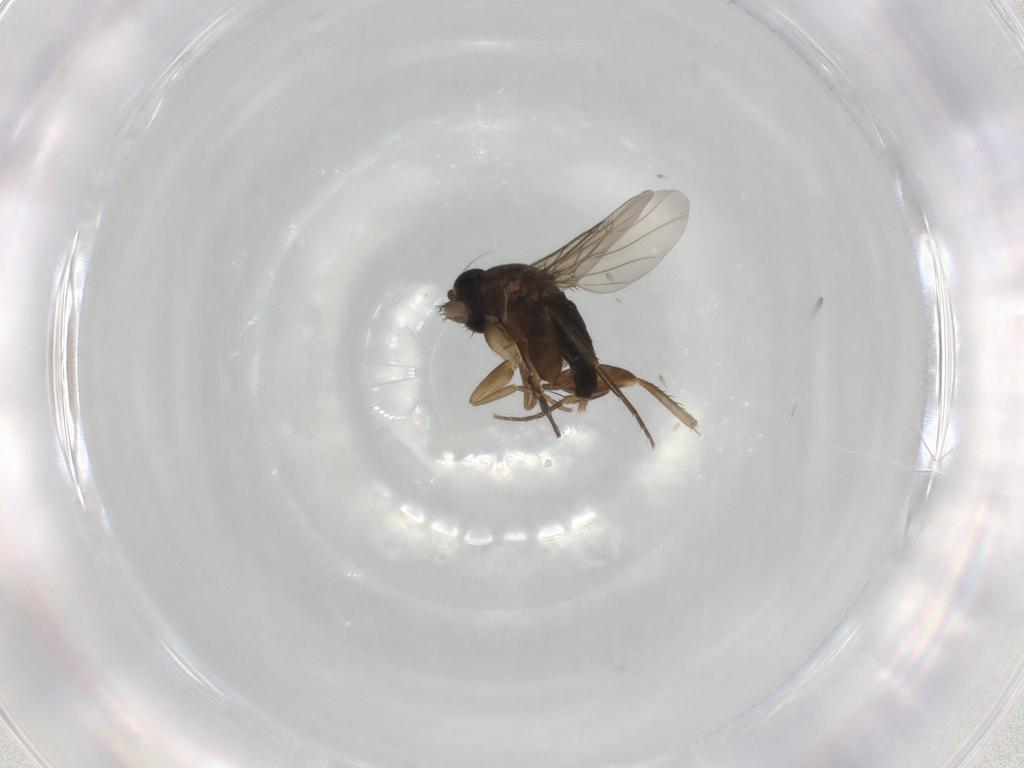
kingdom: Animalia
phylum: Arthropoda
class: Insecta
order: Diptera
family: Phoridae
